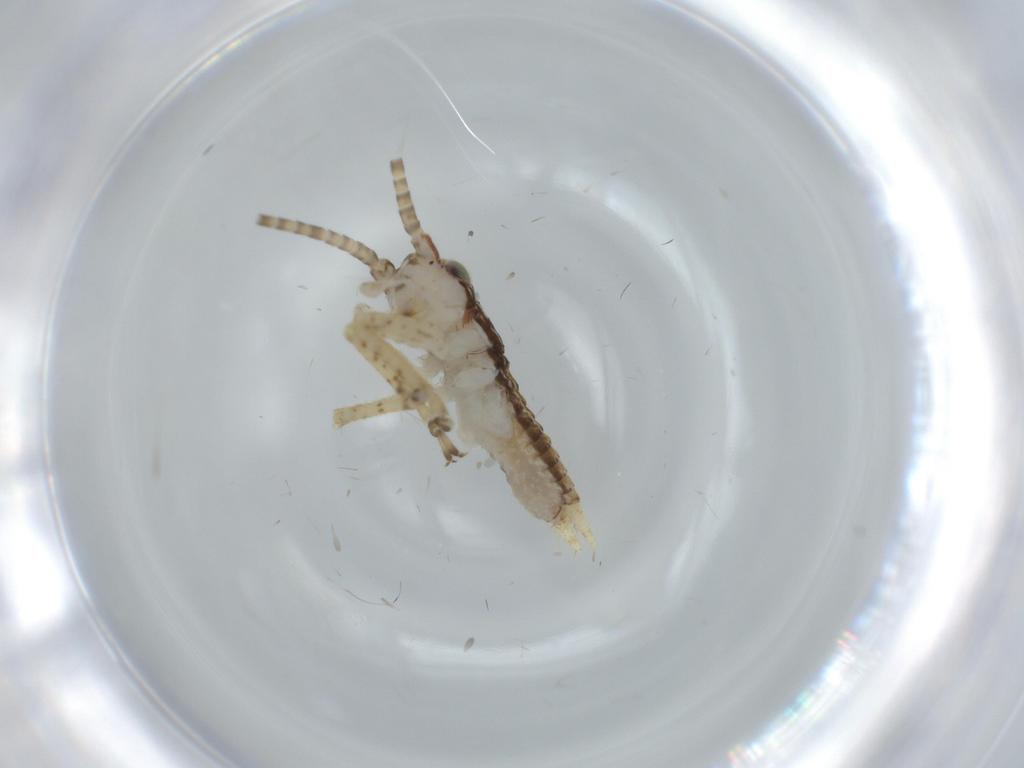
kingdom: Animalia
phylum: Arthropoda
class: Insecta
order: Orthoptera
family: Gryllidae
